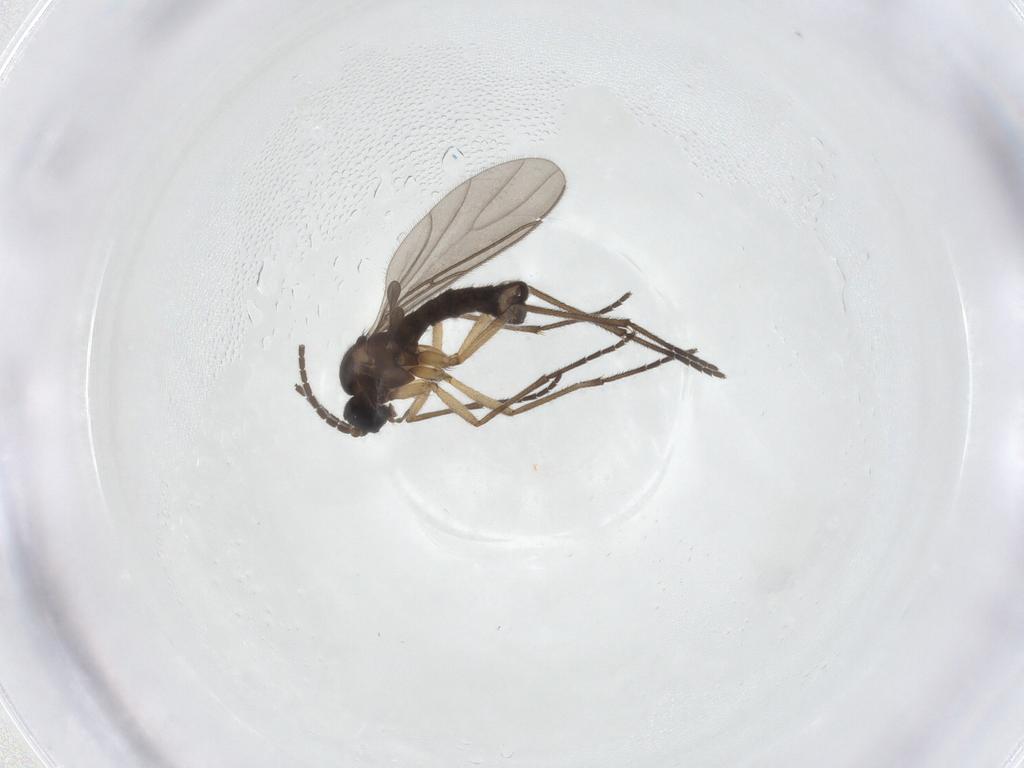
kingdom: Animalia
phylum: Arthropoda
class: Insecta
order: Diptera
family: Sciaridae
